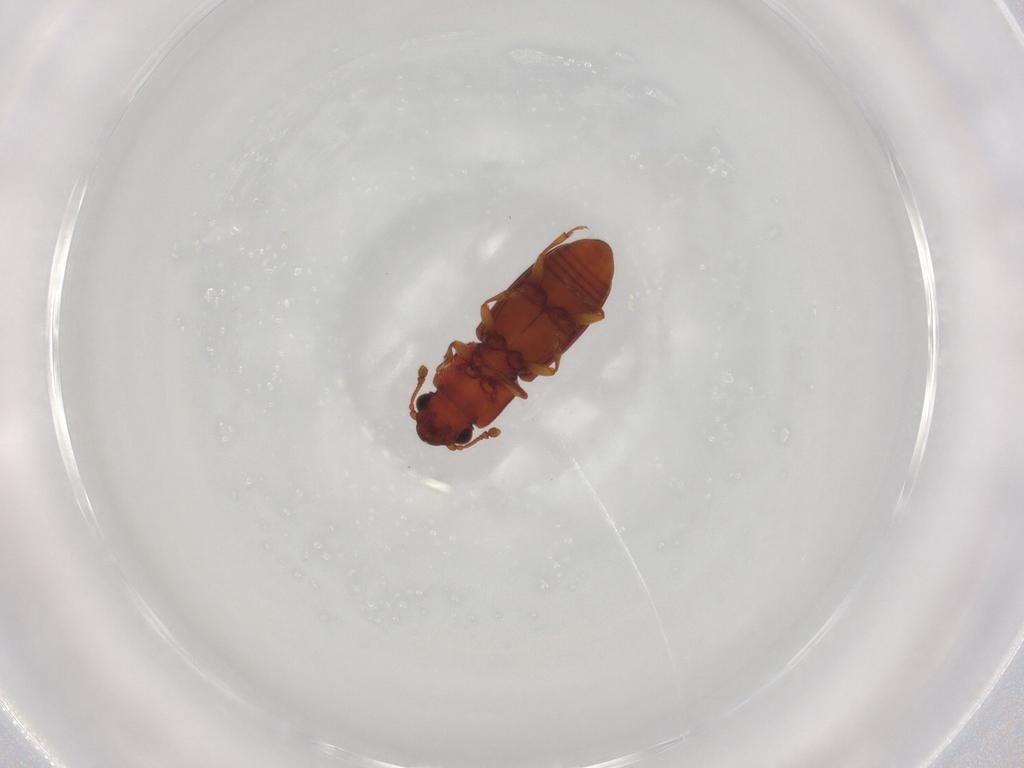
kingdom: Animalia
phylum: Arthropoda
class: Insecta
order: Coleoptera
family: Monotomidae
